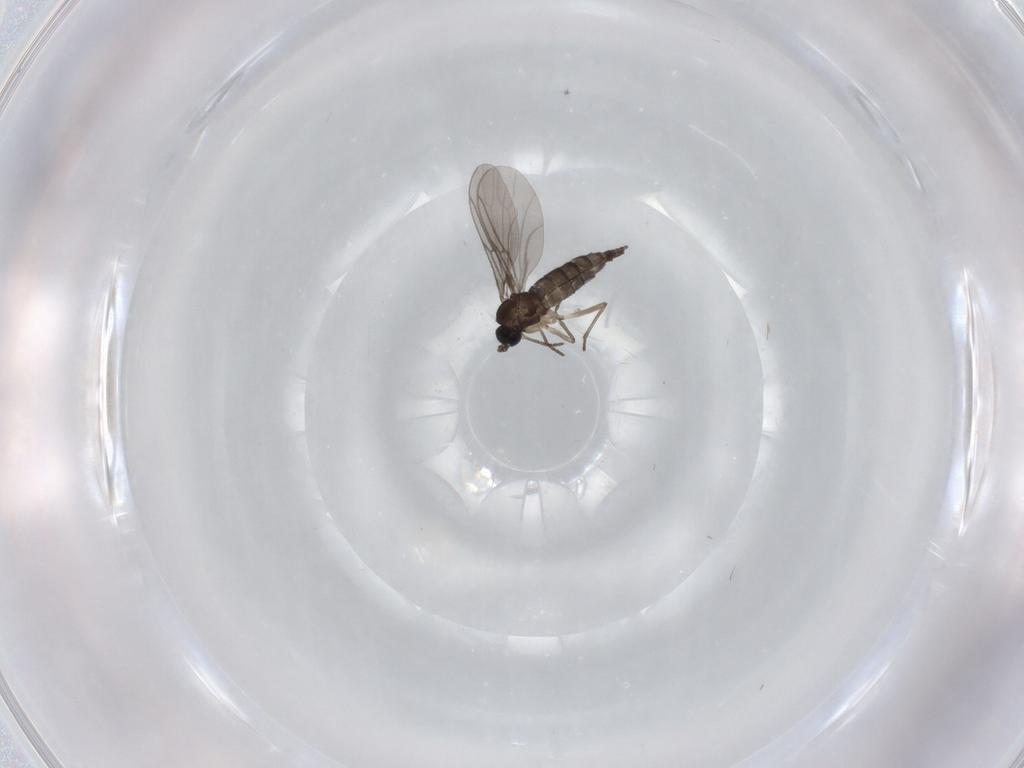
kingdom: Animalia
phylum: Arthropoda
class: Insecta
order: Diptera
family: Sciaridae
